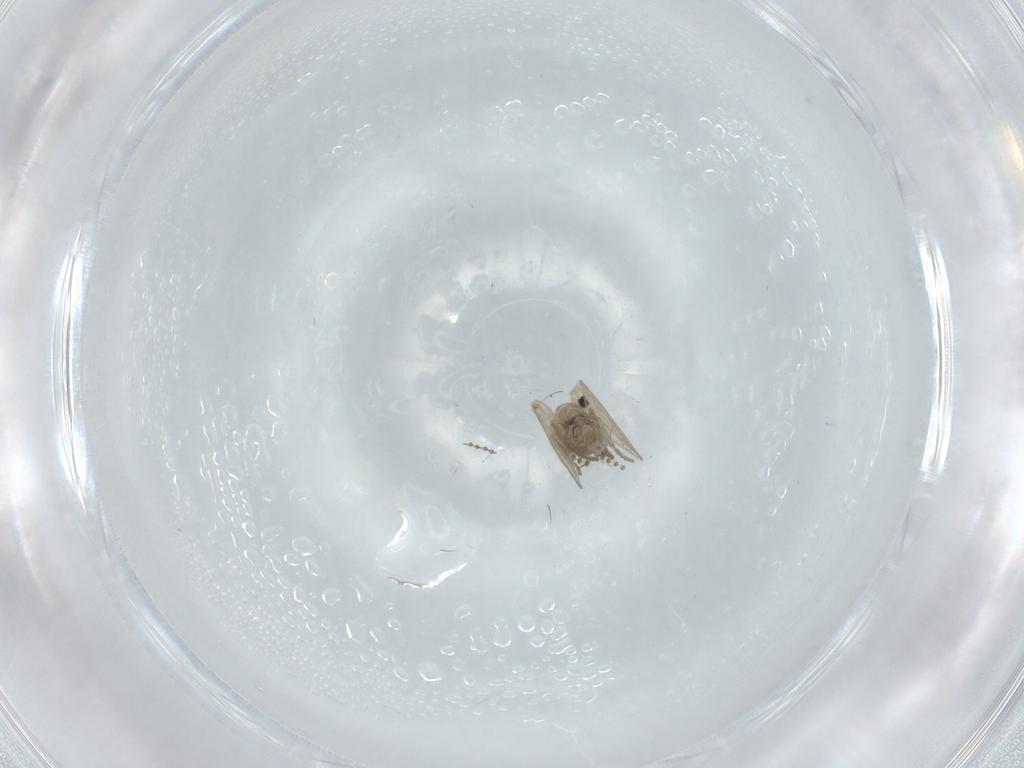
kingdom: Animalia
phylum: Arthropoda
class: Insecta
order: Diptera
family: Psychodidae
